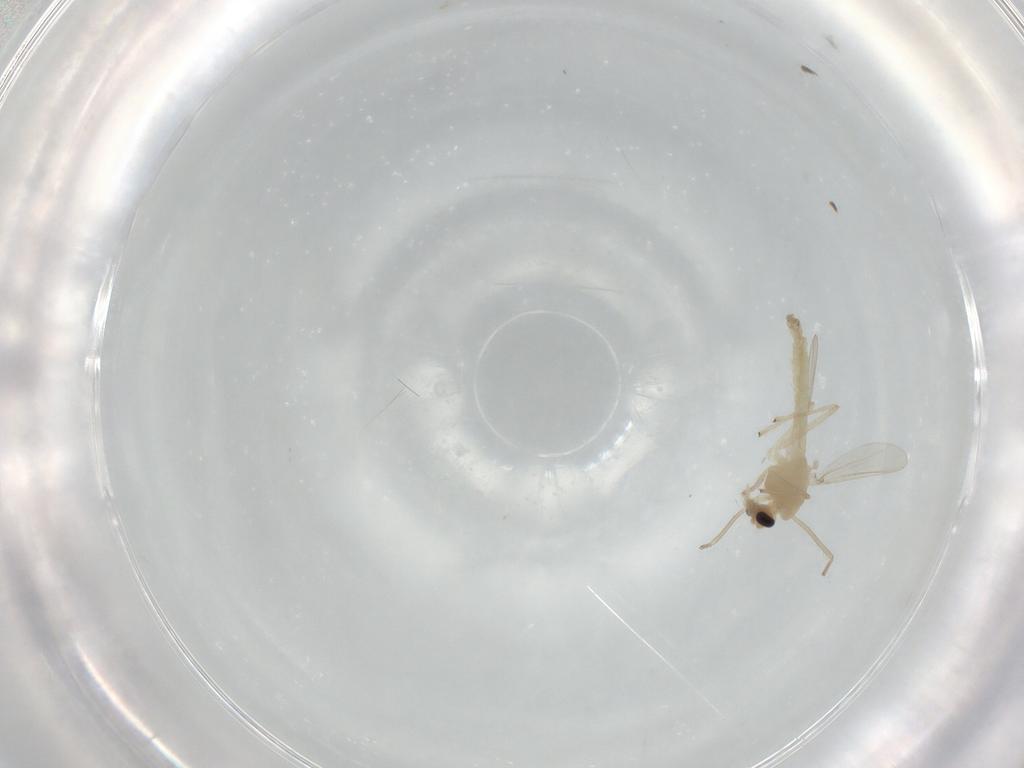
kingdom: Animalia
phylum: Arthropoda
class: Insecta
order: Diptera
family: Chironomidae
